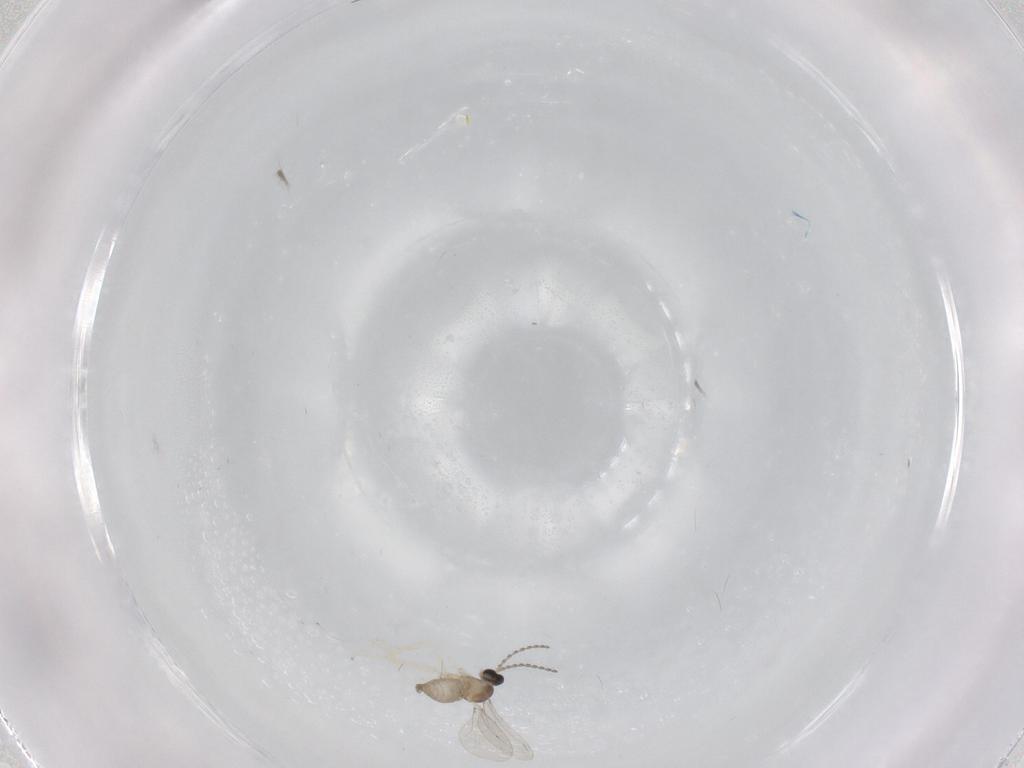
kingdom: Animalia
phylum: Arthropoda
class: Insecta
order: Diptera
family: Cecidomyiidae
